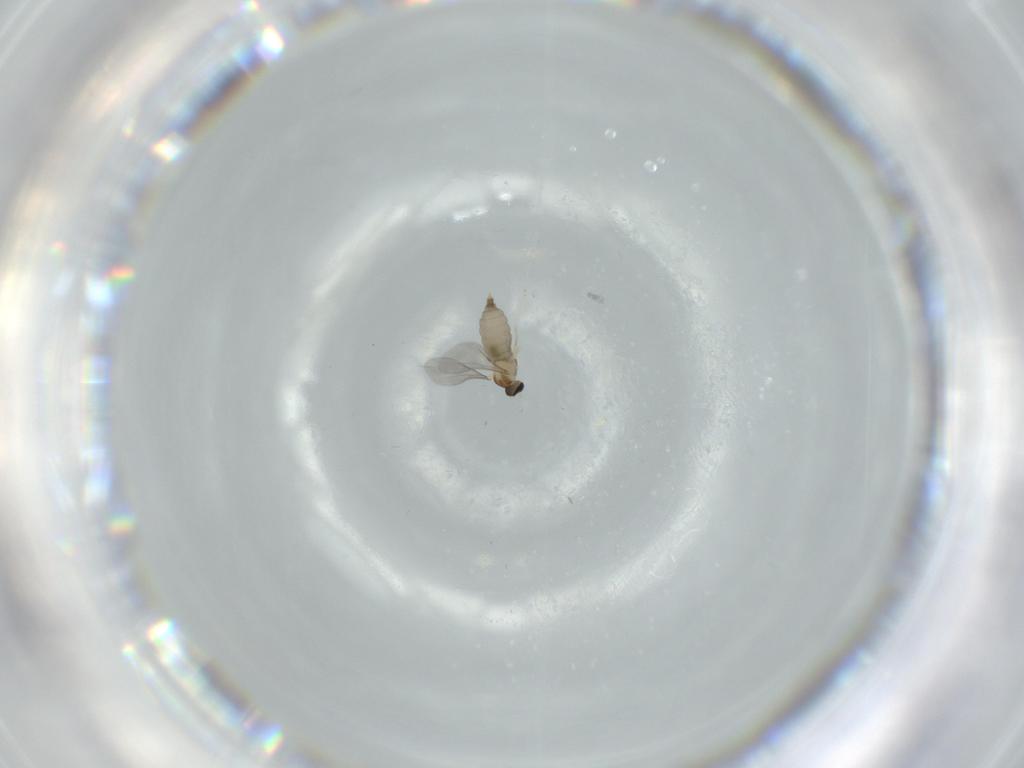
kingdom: Animalia
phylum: Arthropoda
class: Insecta
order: Diptera
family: Cecidomyiidae
